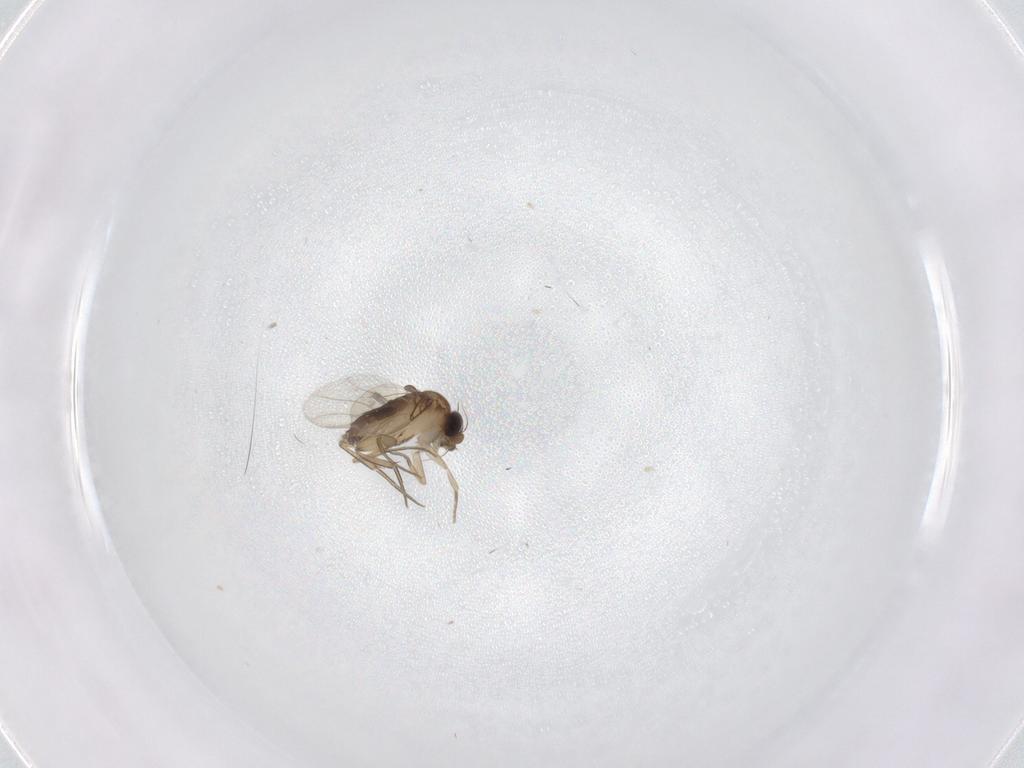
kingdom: Animalia
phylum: Arthropoda
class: Insecta
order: Diptera
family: Phoridae
